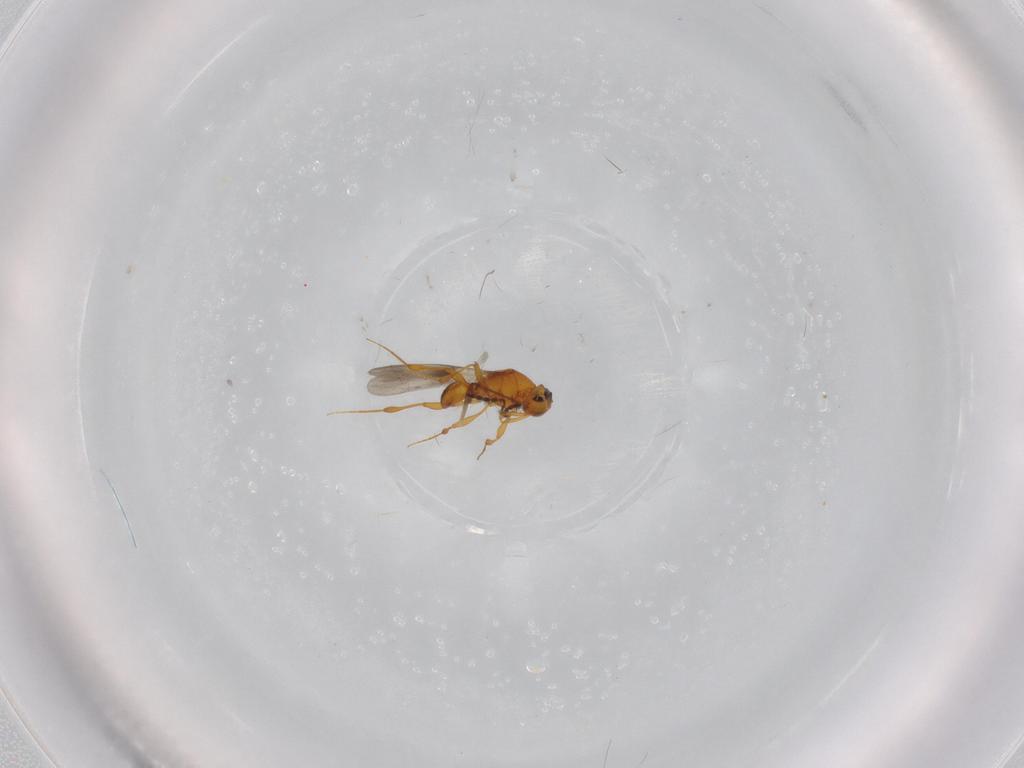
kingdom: Animalia
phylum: Arthropoda
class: Insecta
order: Hymenoptera
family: Platygastridae
